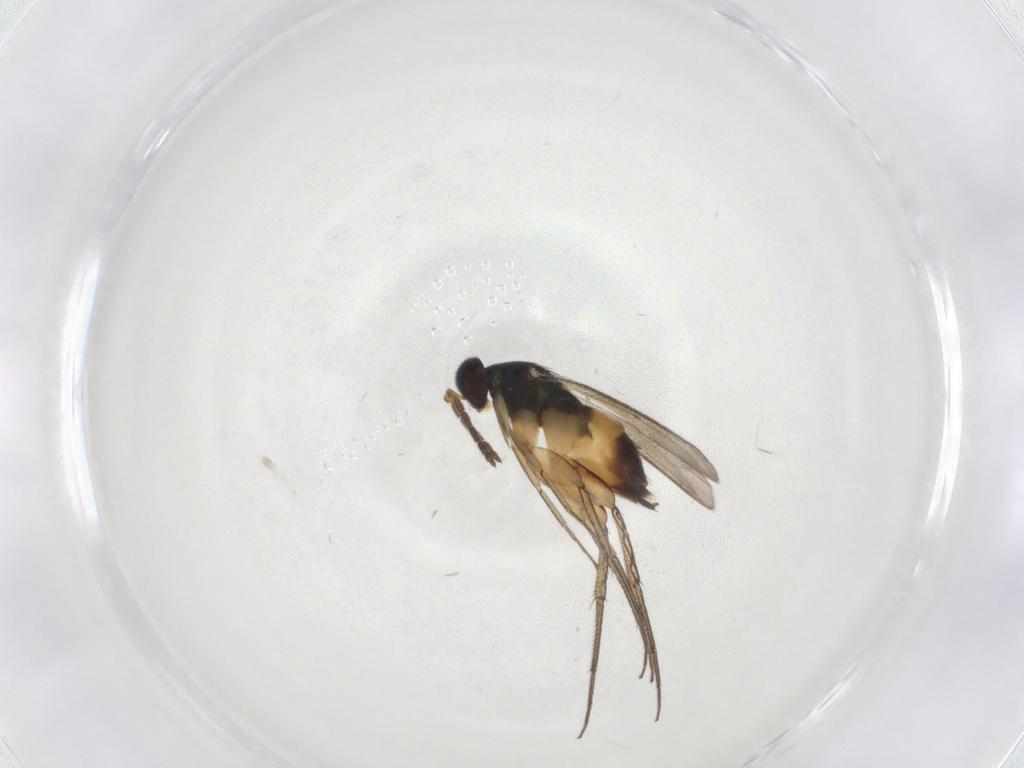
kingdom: Animalia
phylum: Arthropoda
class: Insecta
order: Hymenoptera
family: Eulophidae
